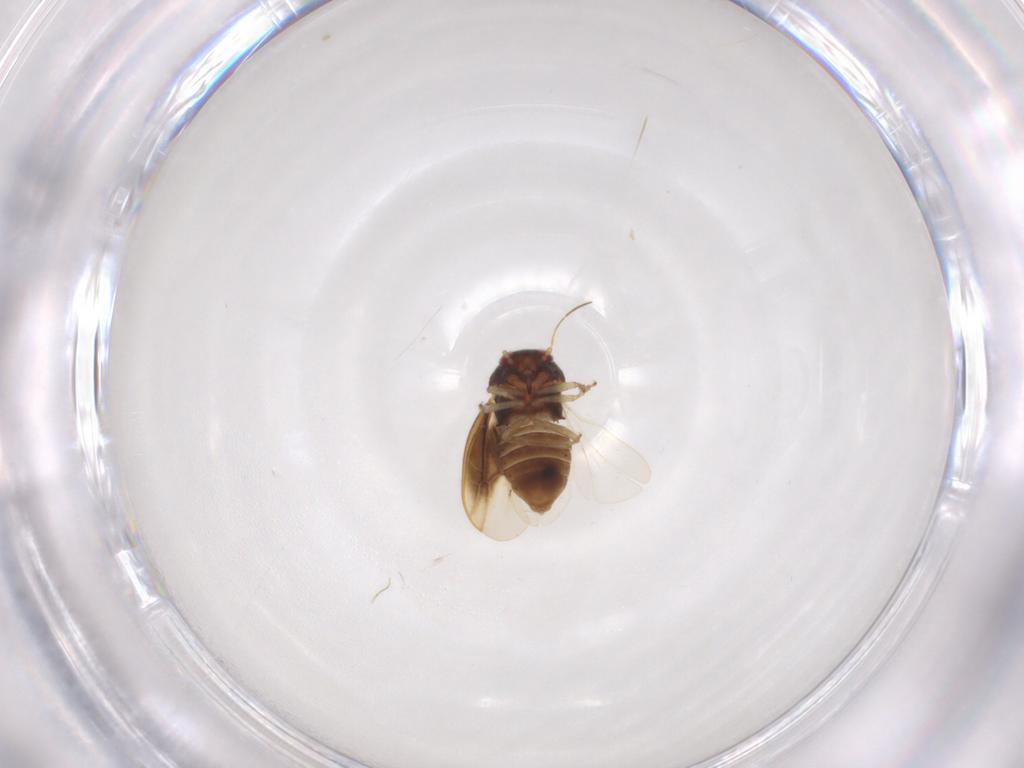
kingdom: Animalia
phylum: Arthropoda
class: Insecta
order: Hemiptera
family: Schizopteridae
